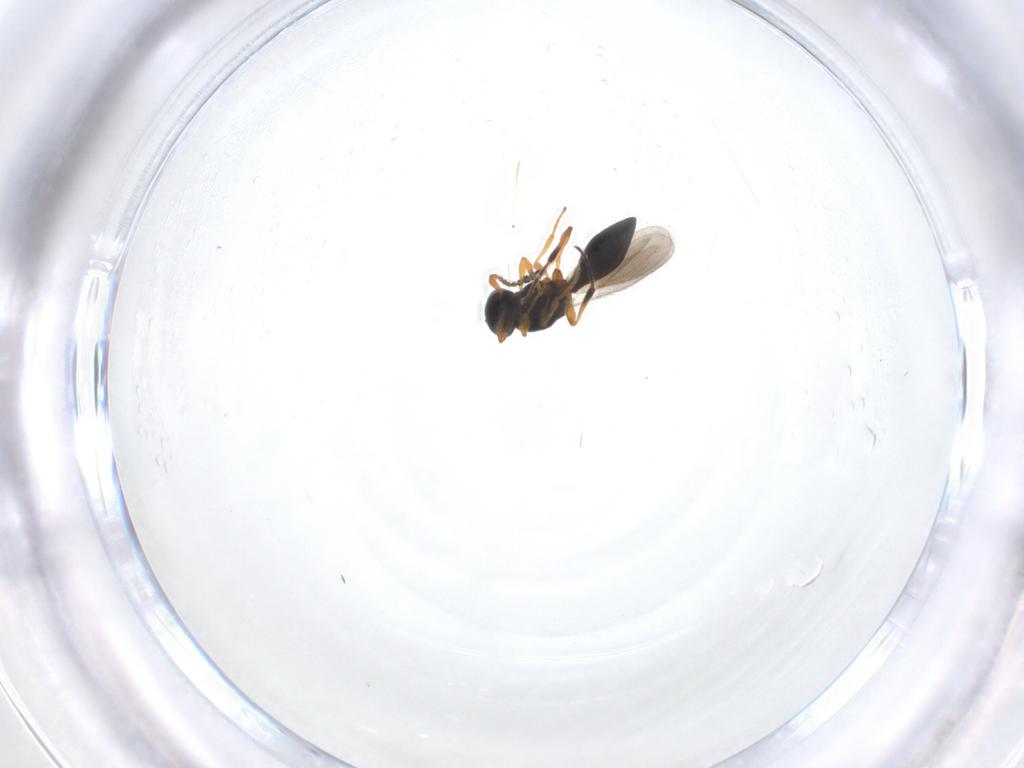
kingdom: Animalia
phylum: Arthropoda
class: Insecta
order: Hymenoptera
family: Platygastridae
